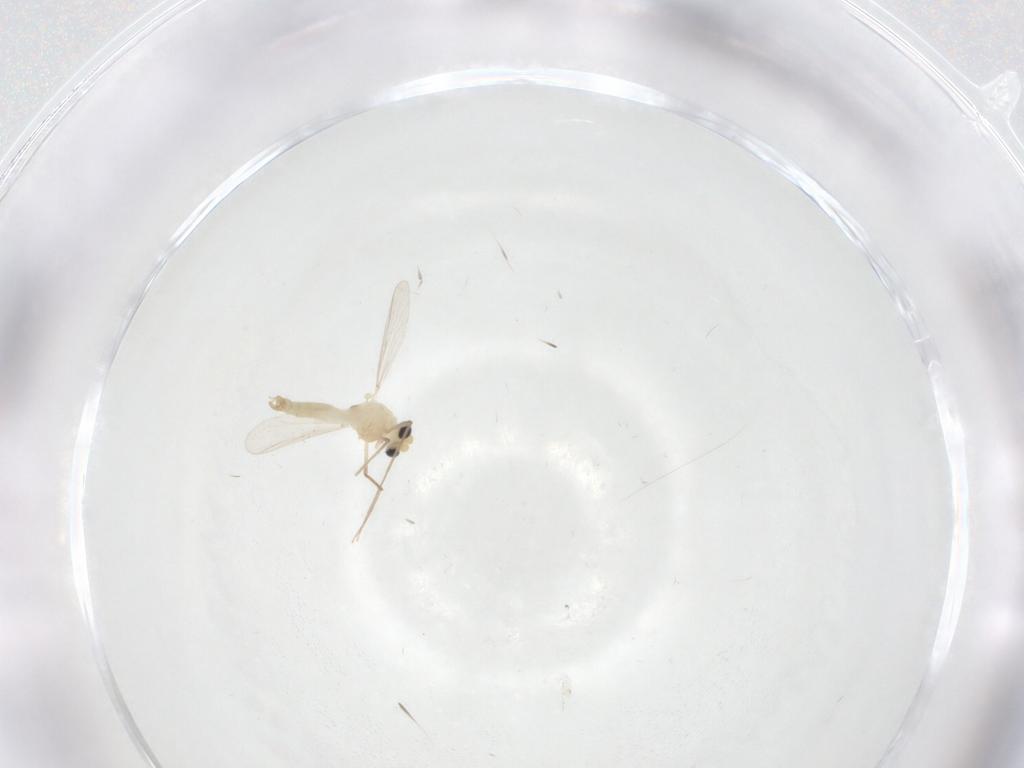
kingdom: Animalia
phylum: Arthropoda
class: Insecta
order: Diptera
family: Chironomidae
